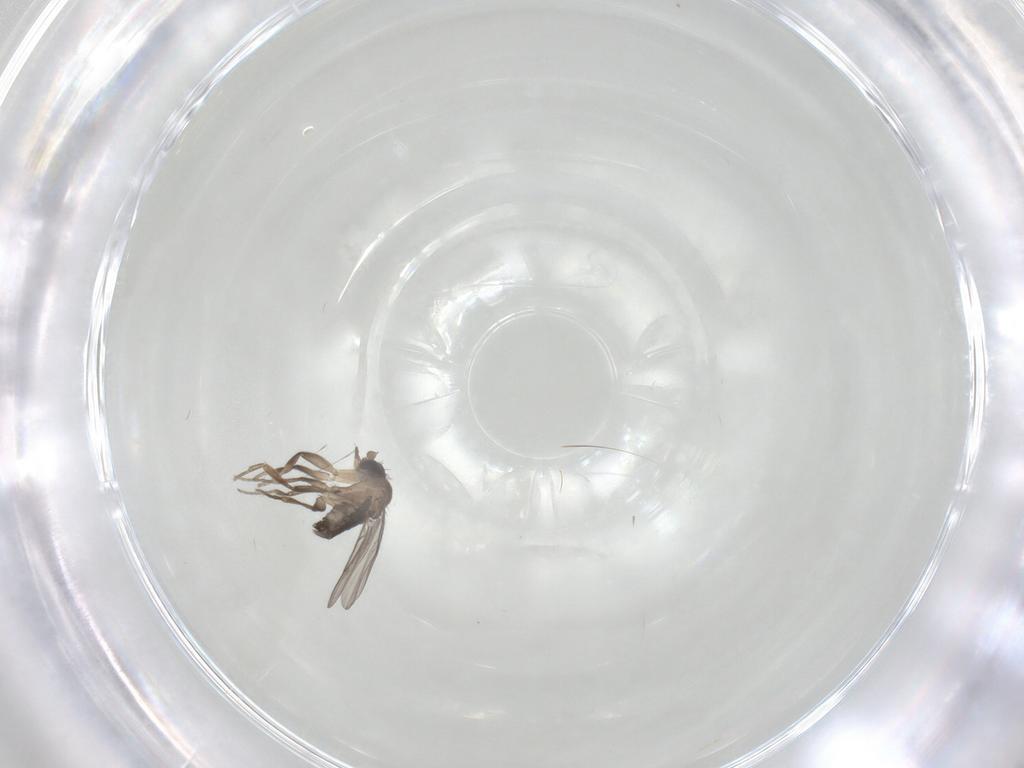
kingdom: Animalia
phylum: Arthropoda
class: Insecta
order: Diptera
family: Phoridae
